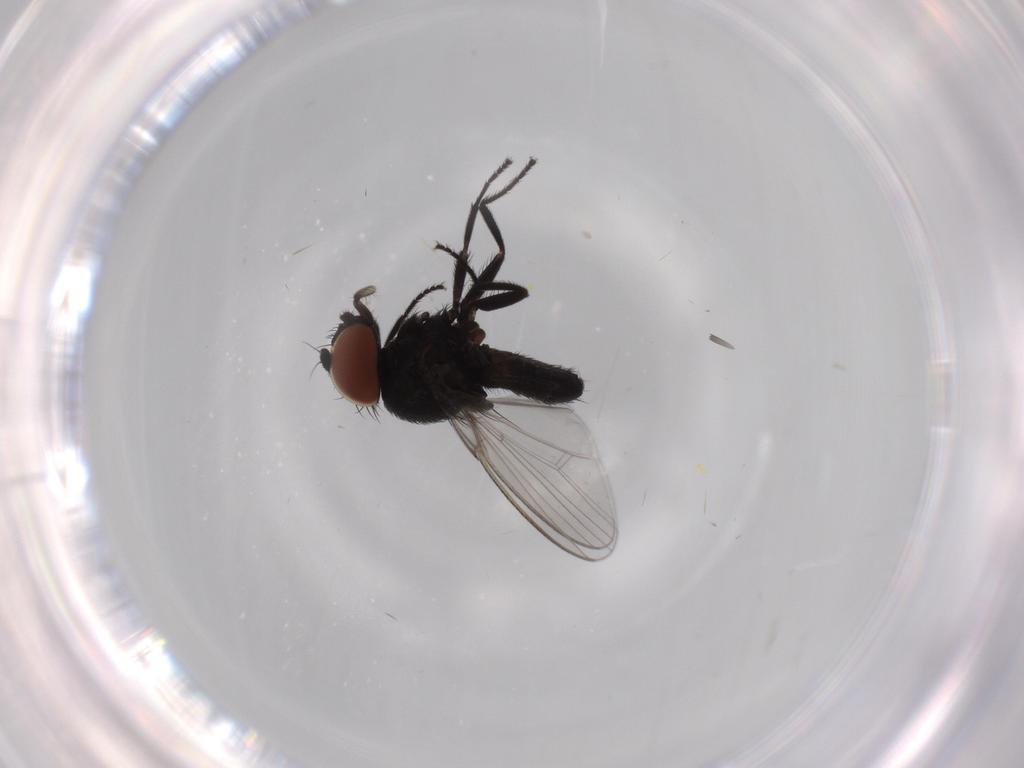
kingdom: Animalia
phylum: Arthropoda
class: Insecta
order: Diptera
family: Milichiidae
